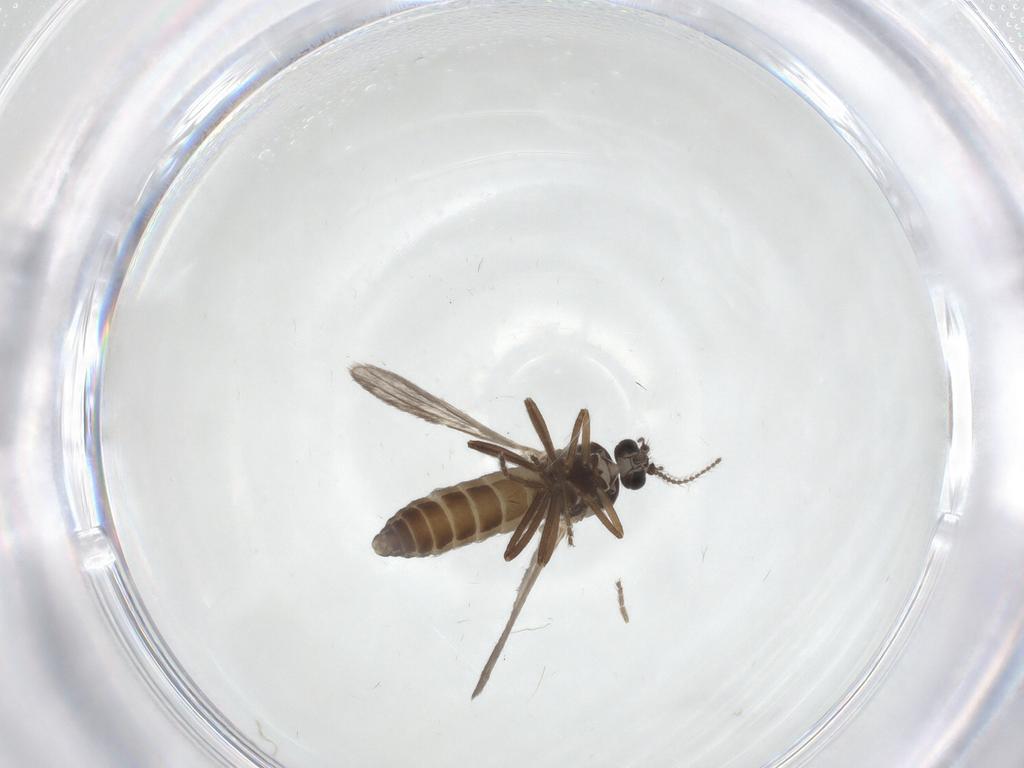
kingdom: Animalia
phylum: Arthropoda
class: Insecta
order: Diptera
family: Ceratopogonidae
